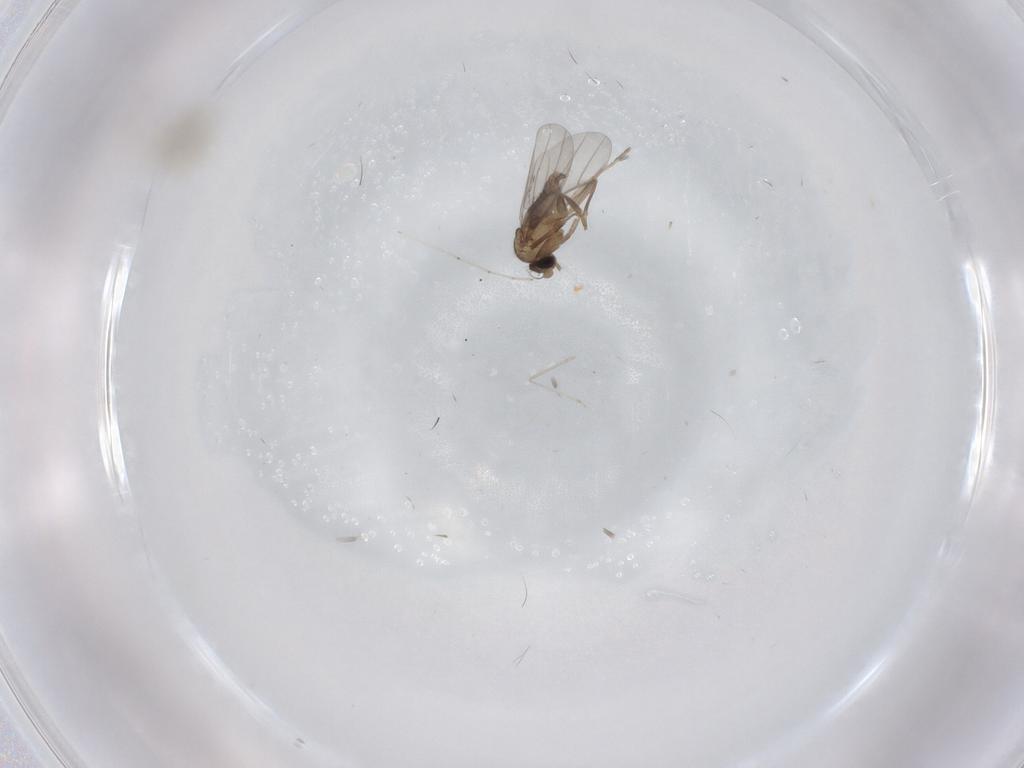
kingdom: Animalia
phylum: Arthropoda
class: Insecta
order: Diptera
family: Cecidomyiidae
